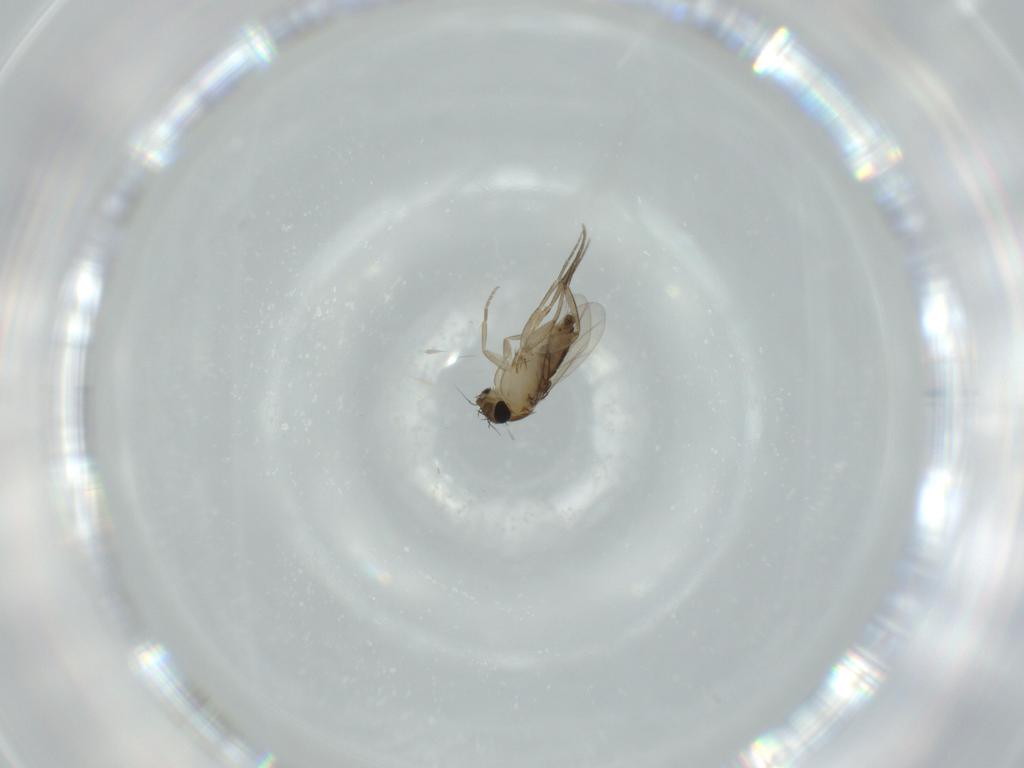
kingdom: Animalia
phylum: Arthropoda
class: Insecta
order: Diptera
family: Phoridae
